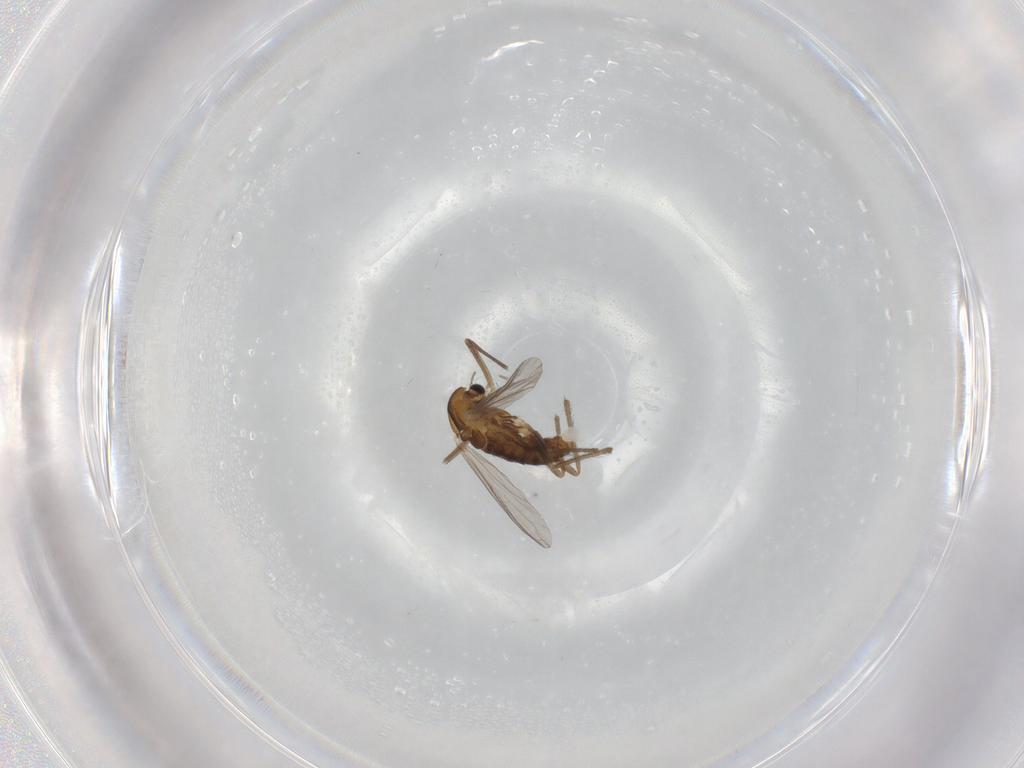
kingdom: Animalia
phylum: Arthropoda
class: Insecta
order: Diptera
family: Chironomidae
